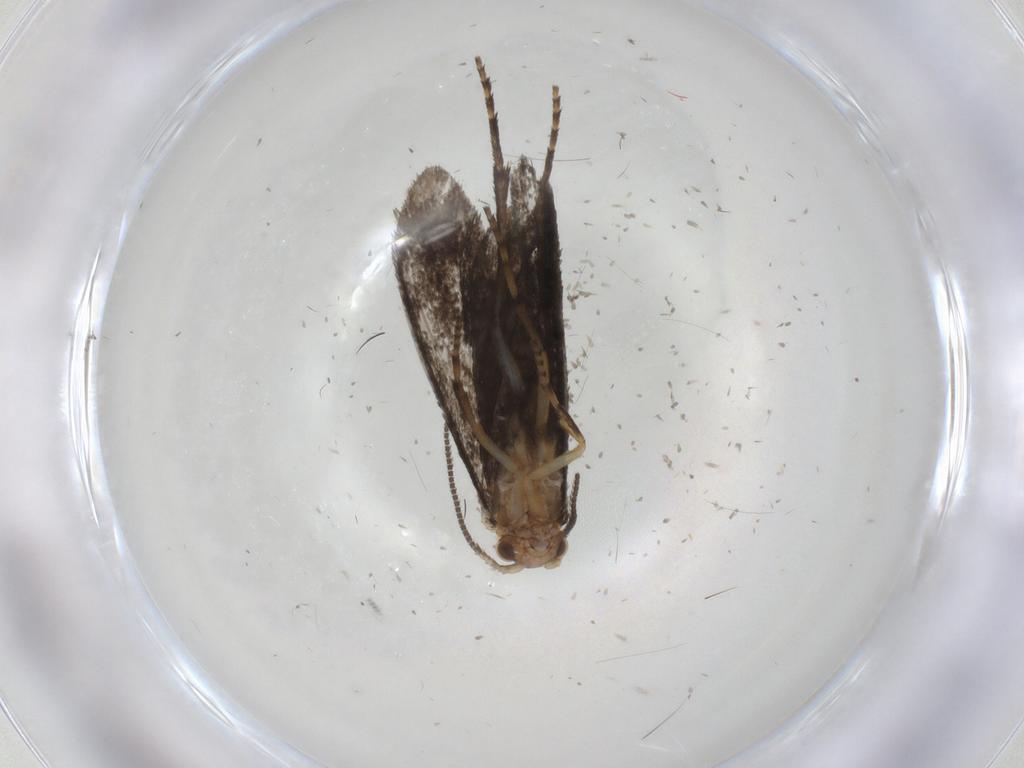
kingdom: Animalia
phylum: Arthropoda
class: Insecta
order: Lepidoptera
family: Micropterigidae
